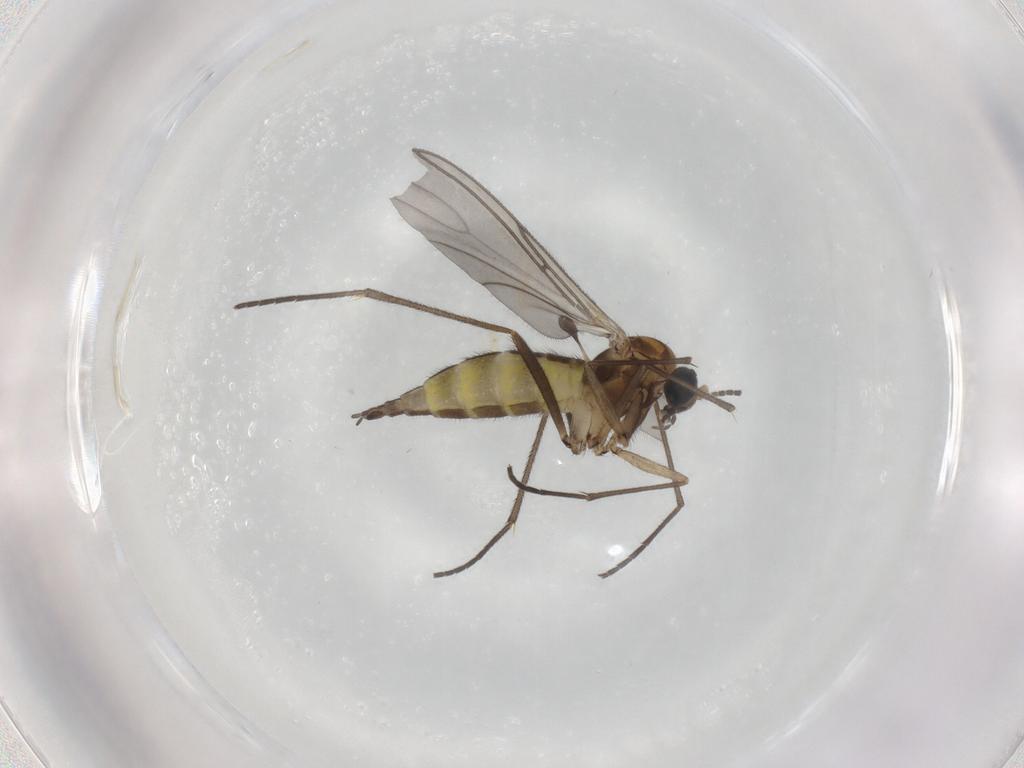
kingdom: Animalia
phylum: Arthropoda
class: Insecta
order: Diptera
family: Sciaridae
